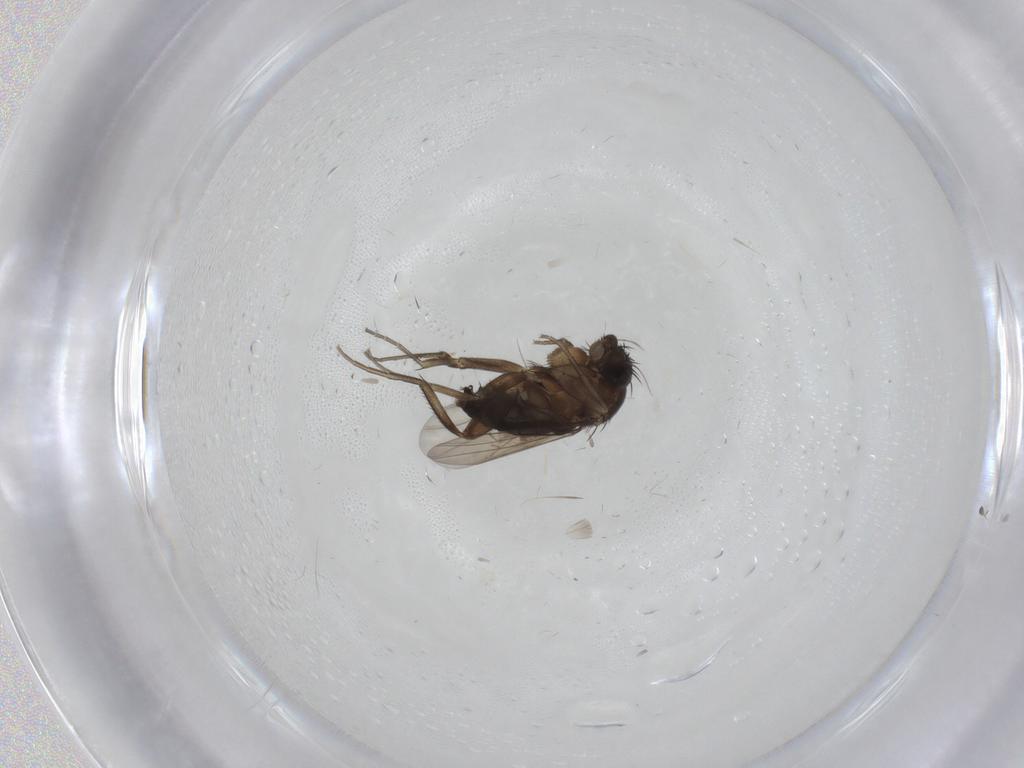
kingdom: Animalia
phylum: Arthropoda
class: Insecta
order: Diptera
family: Phoridae
